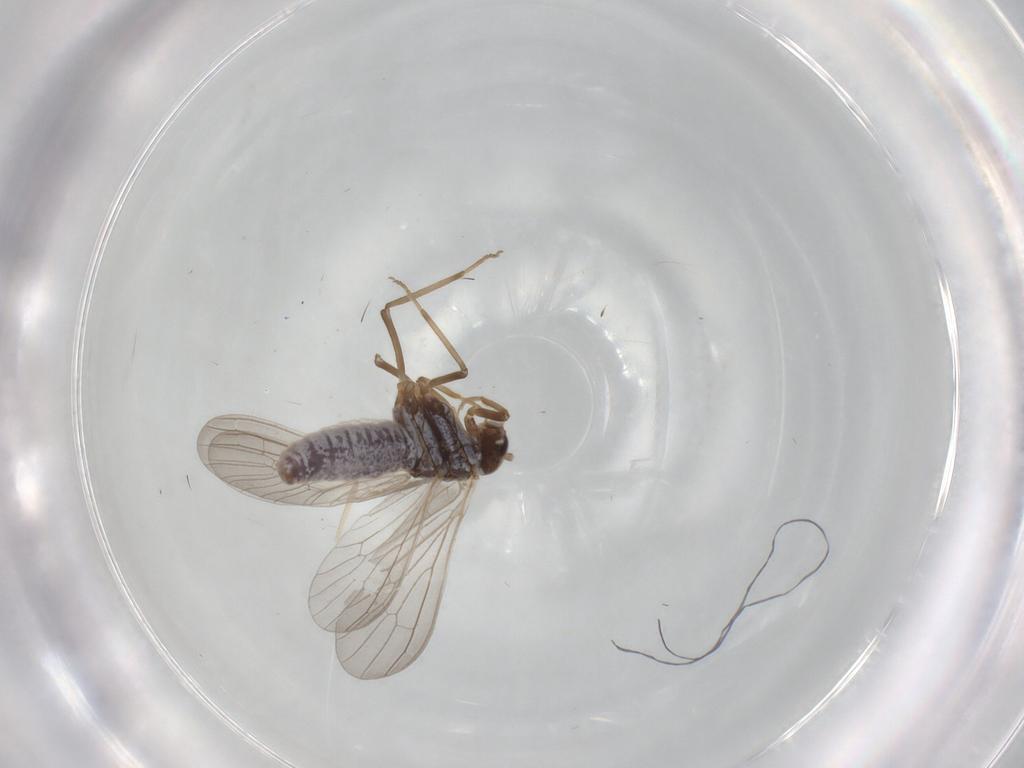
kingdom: Animalia
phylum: Arthropoda
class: Insecta
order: Neuroptera
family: Coniopterygidae
